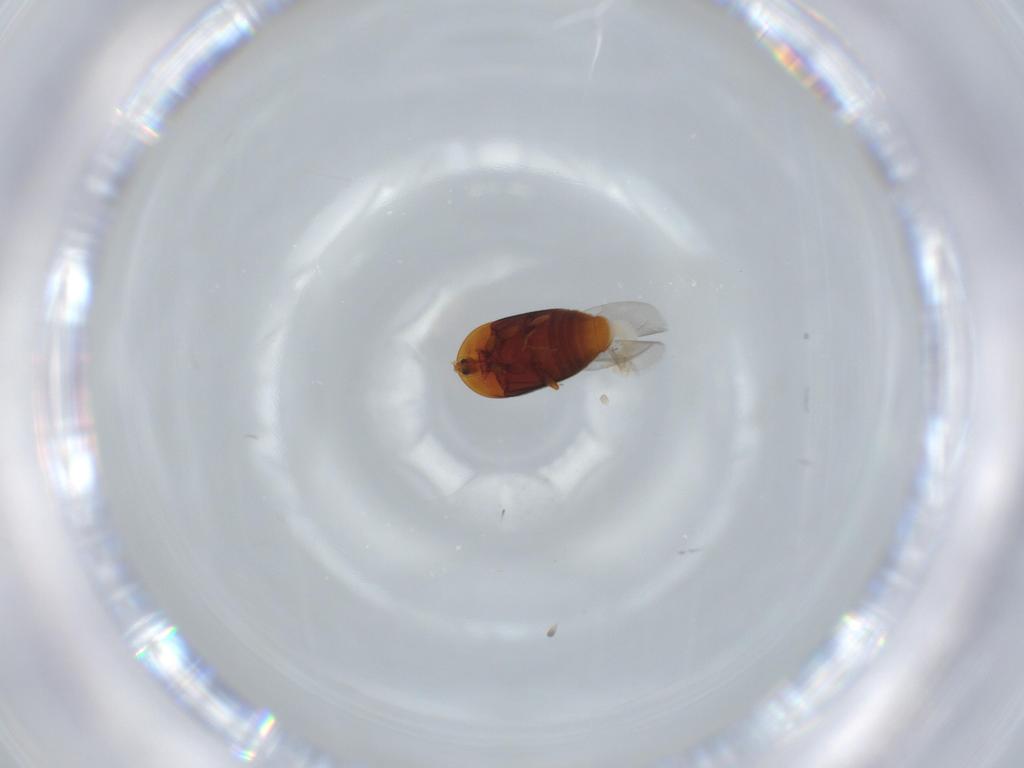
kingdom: Animalia
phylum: Arthropoda
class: Insecta
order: Coleoptera
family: Corylophidae
